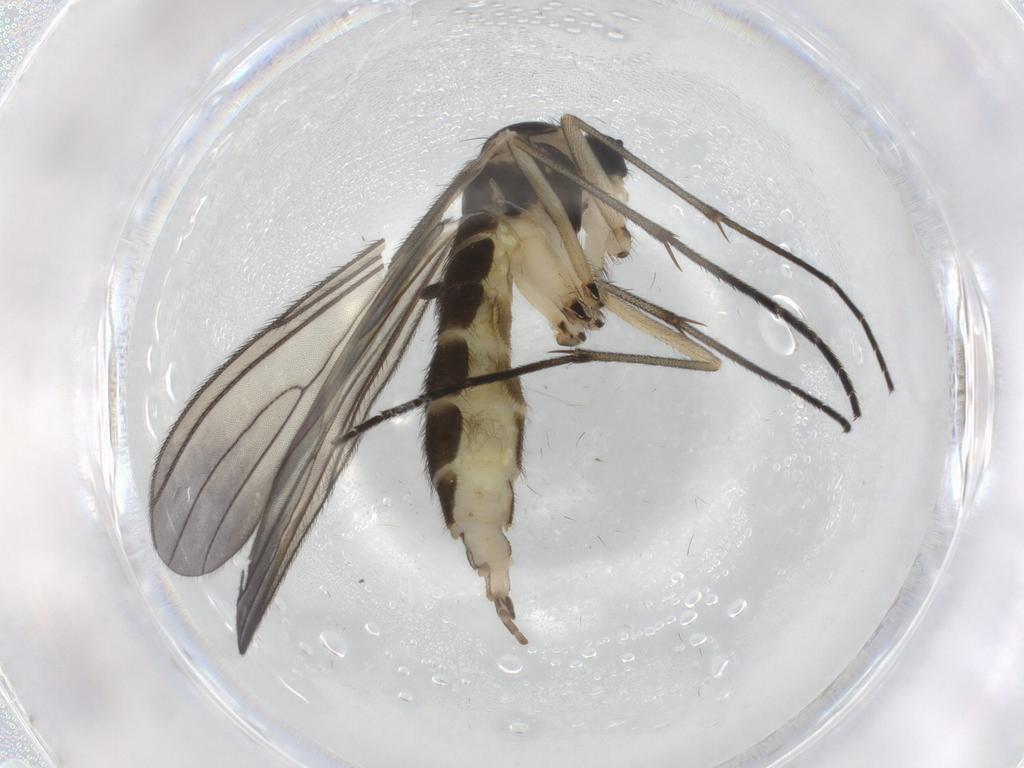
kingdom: Animalia
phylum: Arthropoda
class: Insecta
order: Diptera
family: Sciaridae
